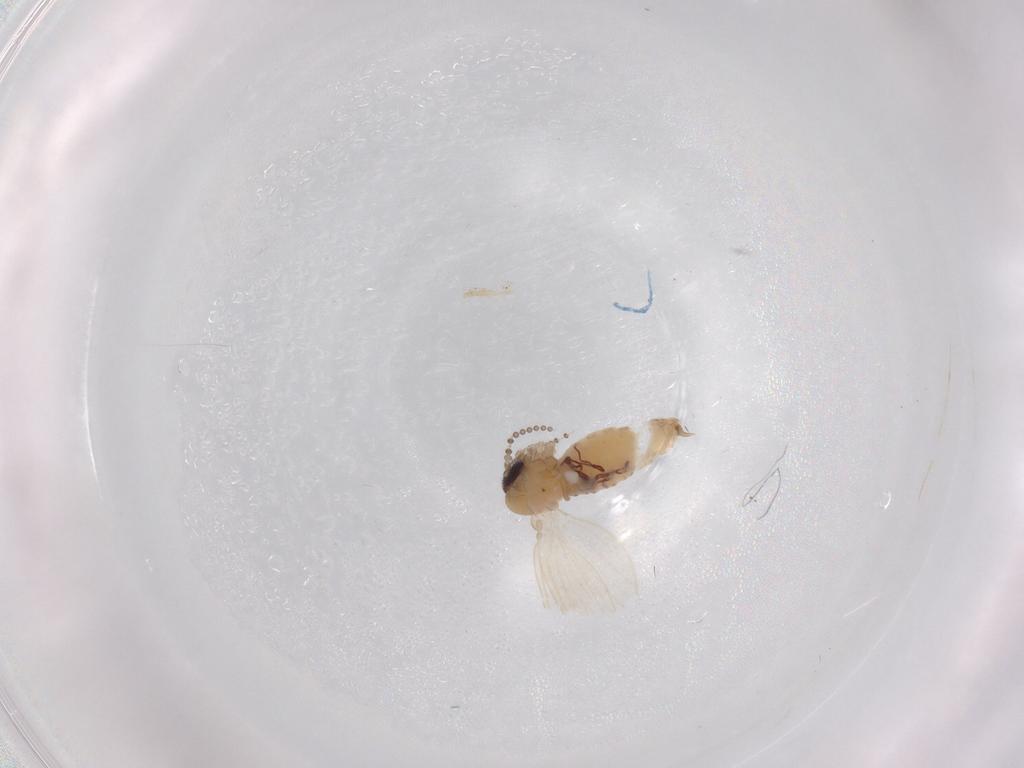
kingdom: Animalia
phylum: Arthropoda
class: Insecta
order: Diptera
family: Psychodidae
